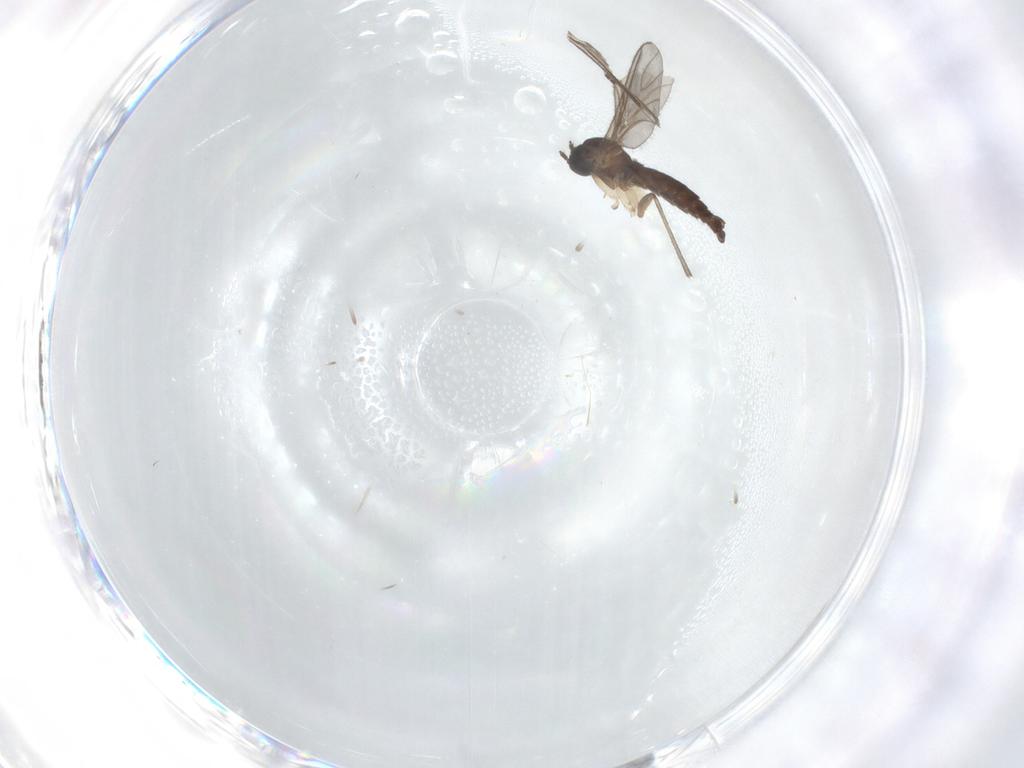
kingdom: Animalia
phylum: Arthropoda
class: Insecta
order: Diptera
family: Sciaridae
